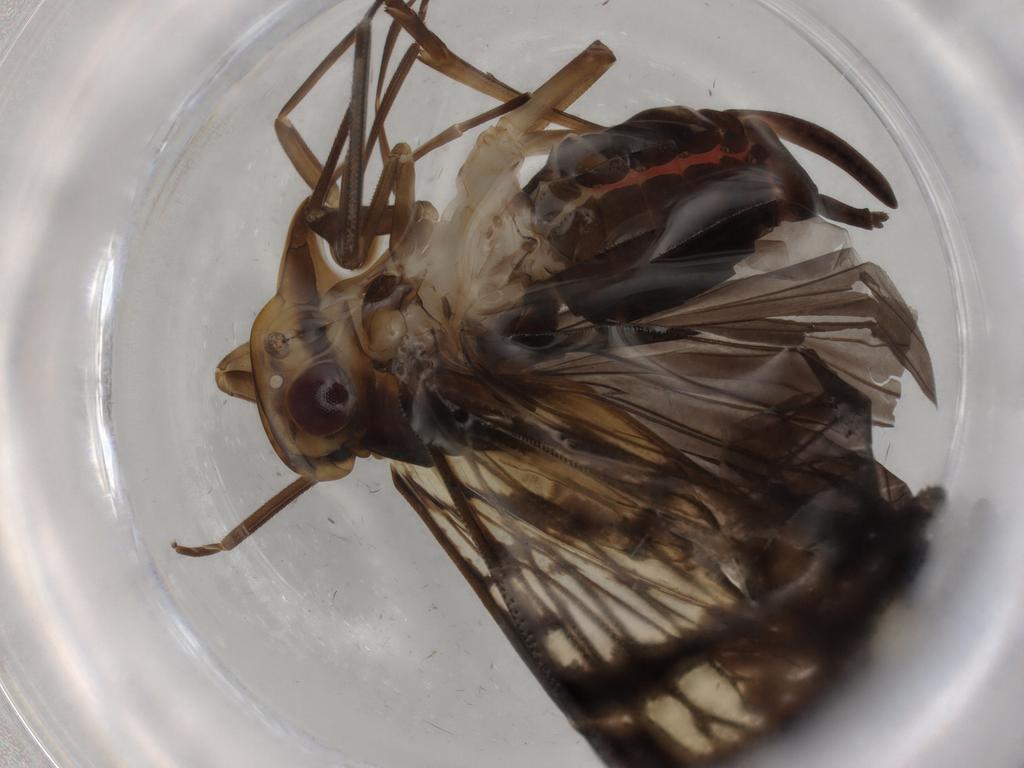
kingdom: Animalia
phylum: Arthropoda
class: Insecta
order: Hemiptera
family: Cixiidae
